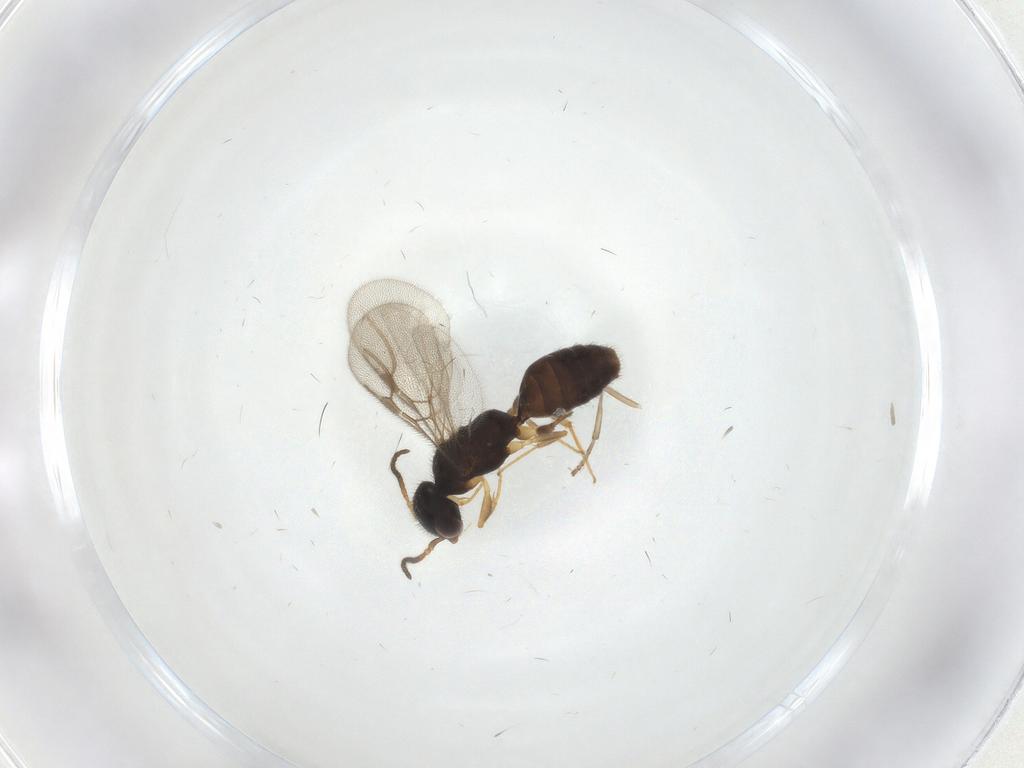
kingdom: Animalia
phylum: Arthropoda
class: Insecta
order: Hymenoptera
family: Bethylidae
